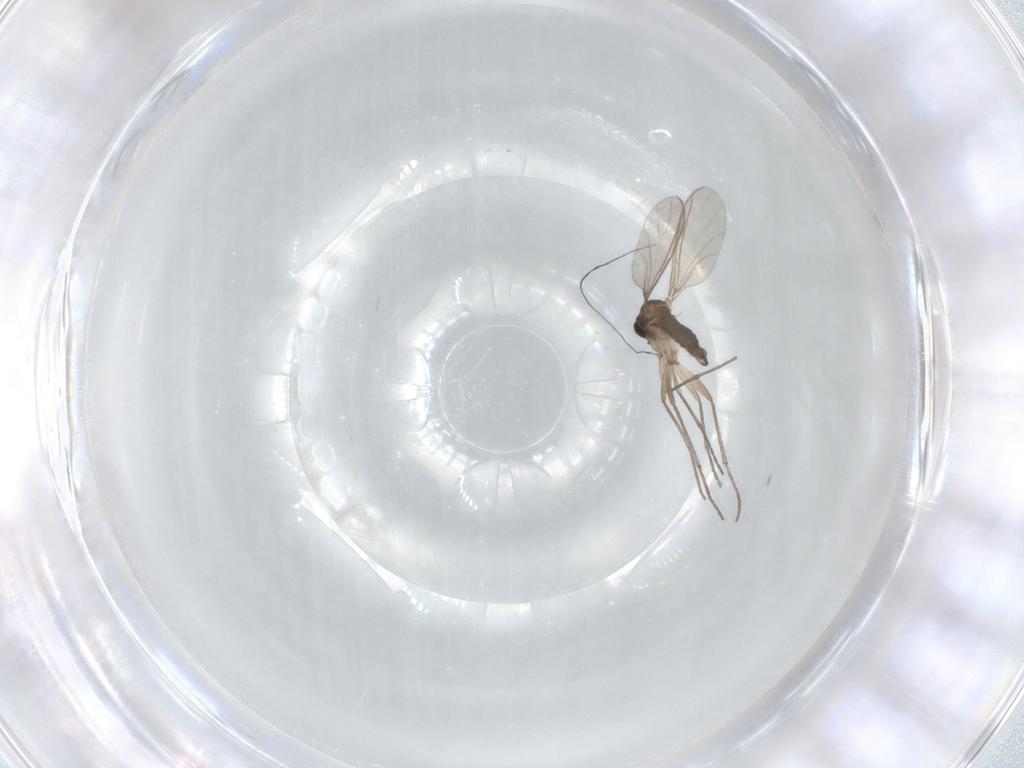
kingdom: Animalia
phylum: Arthropoda
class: Insecta
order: Diptera
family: Sciaridae
